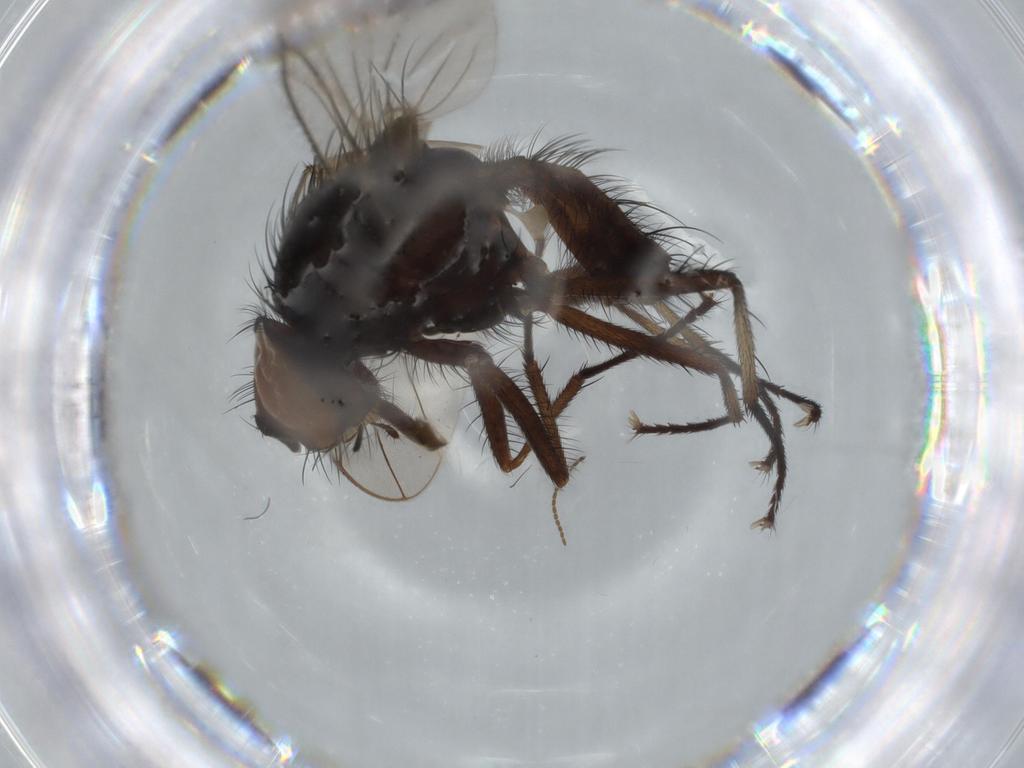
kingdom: Animalia
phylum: Arthropoda
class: Insecta
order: Diptera
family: Anthomyiidae
